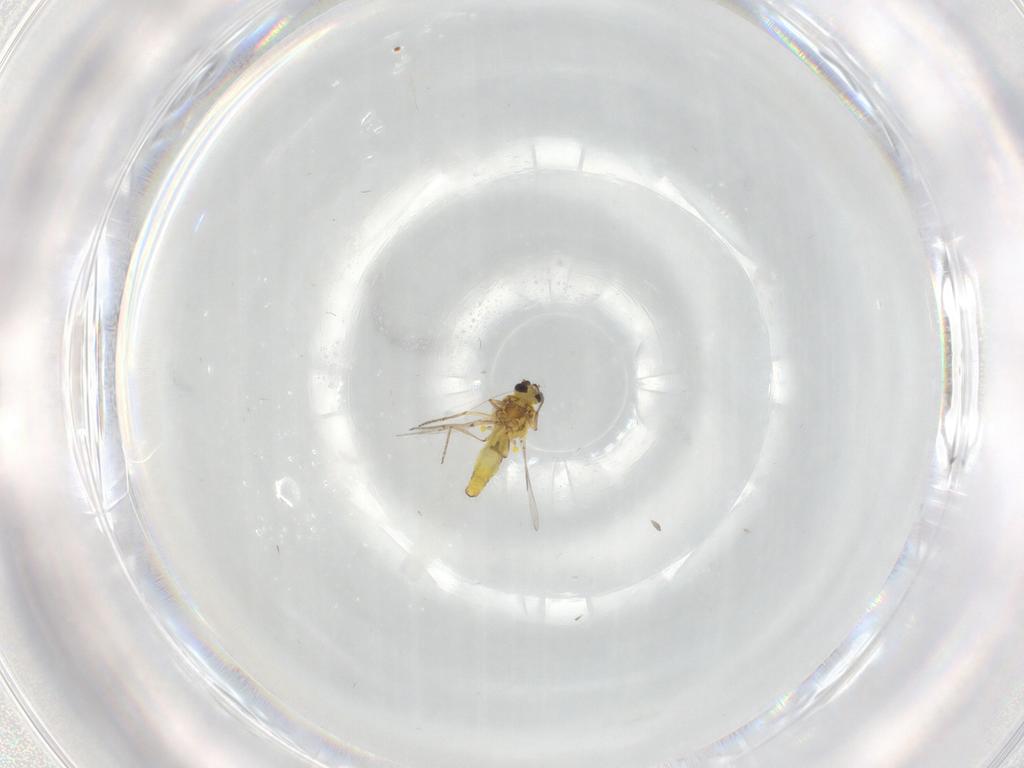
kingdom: Animalia
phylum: Arthropoda
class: Insecta
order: Diptera
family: Ceratopogonidae
